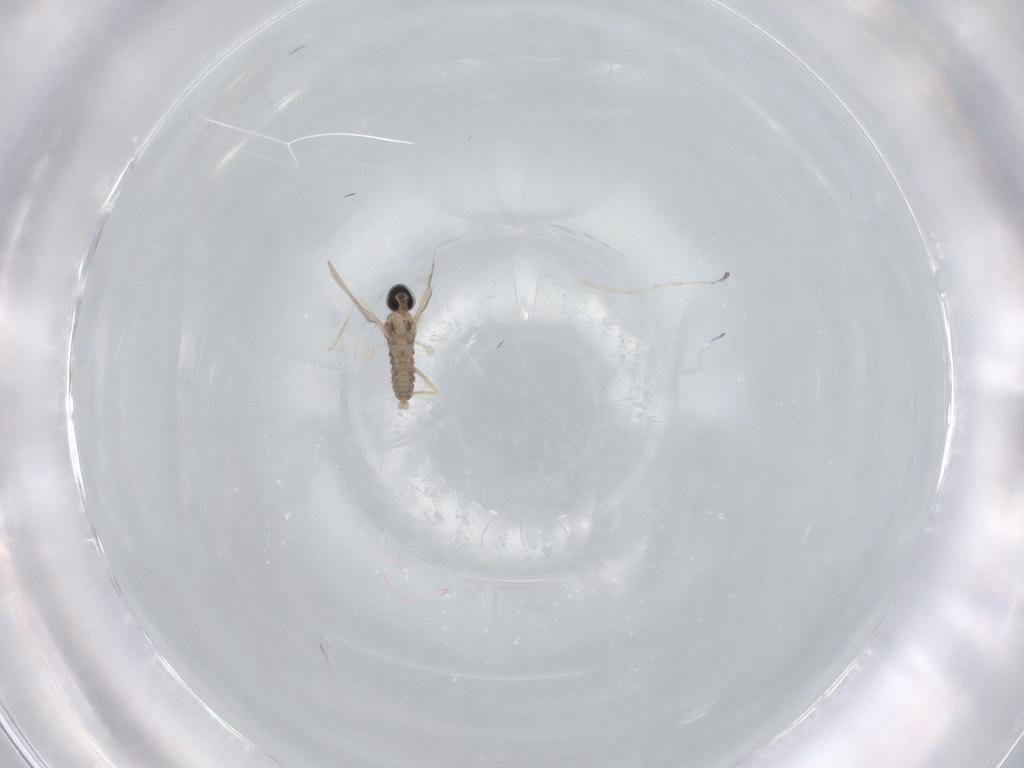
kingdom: Animalia
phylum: Arthropoda
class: Insecta
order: Diptera
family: Cecidomyiidae
